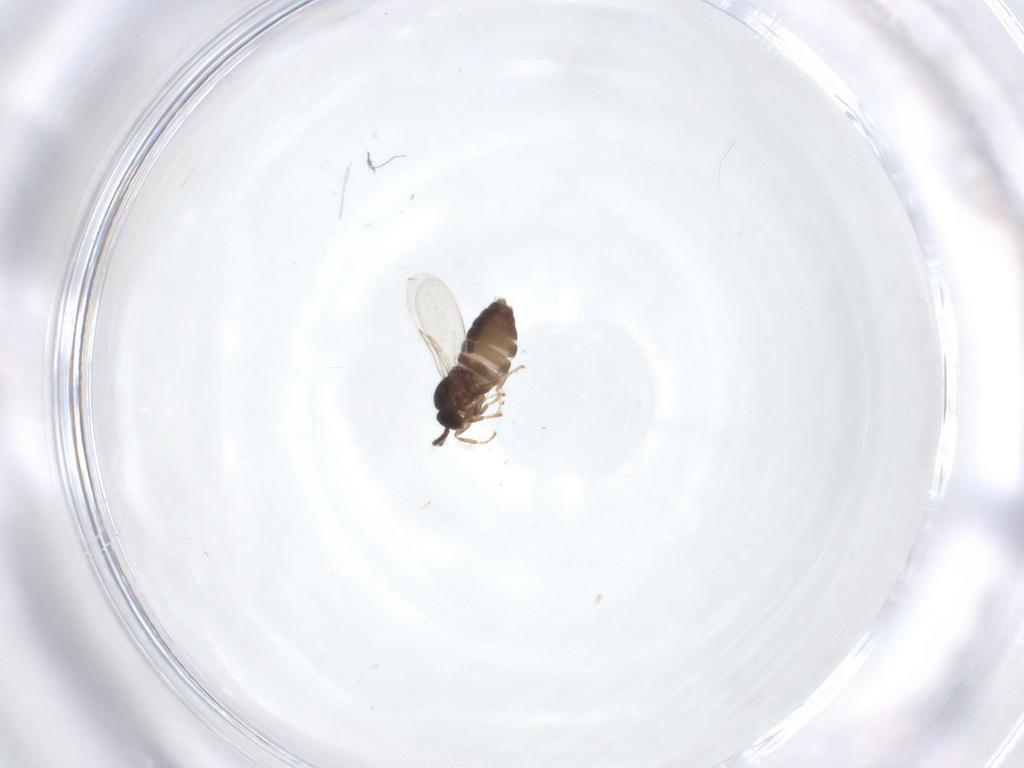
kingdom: Animalia
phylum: Arthropoda
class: Insecta
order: Diptera
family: Scatopsidae
